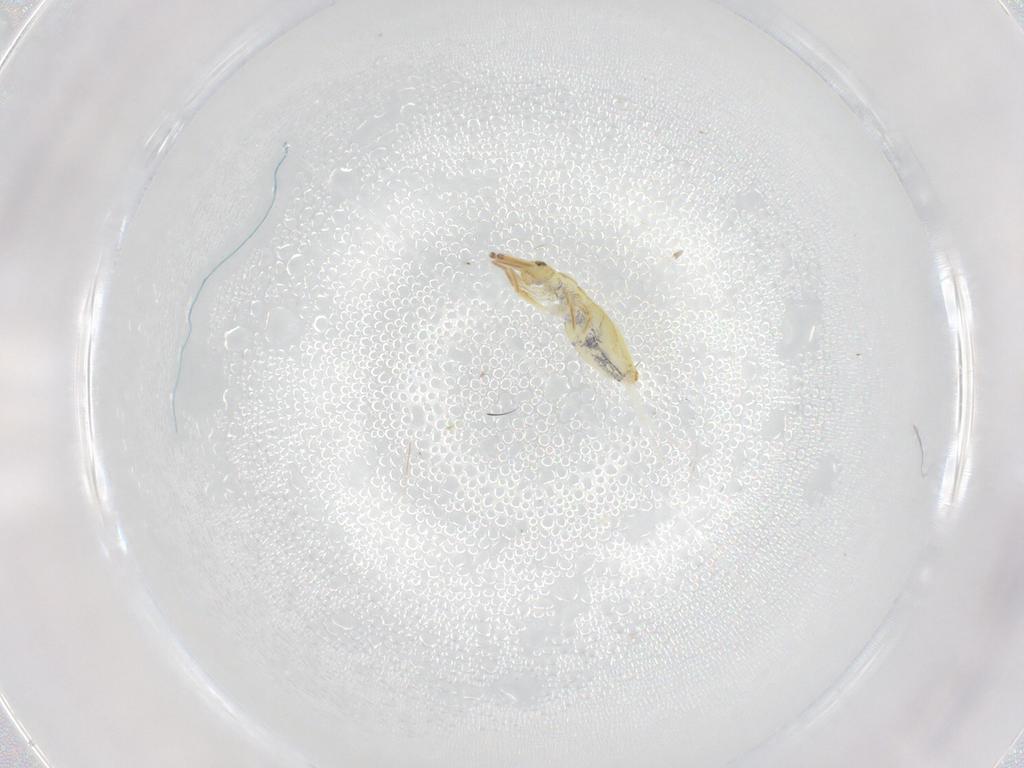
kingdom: Animalia
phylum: Arthropoda
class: Collembola
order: Entomobryomorpha
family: Entomobryidae
